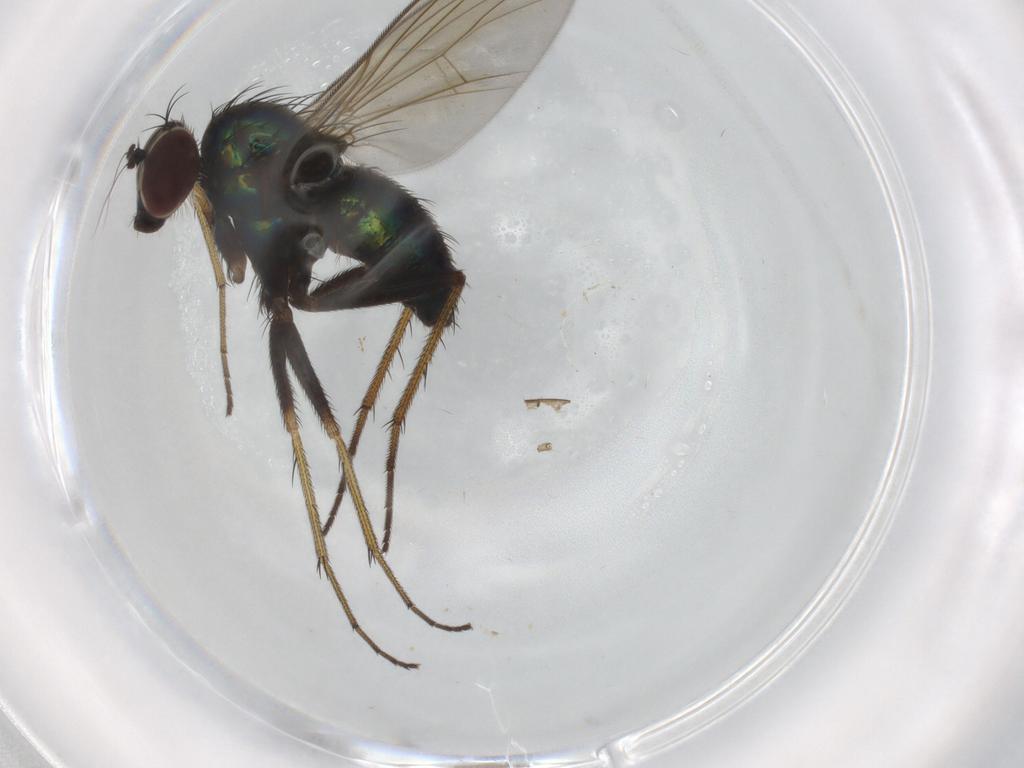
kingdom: Animalia
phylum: Arthropoda
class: Insecta
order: Diptera
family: Dolichopodidae
